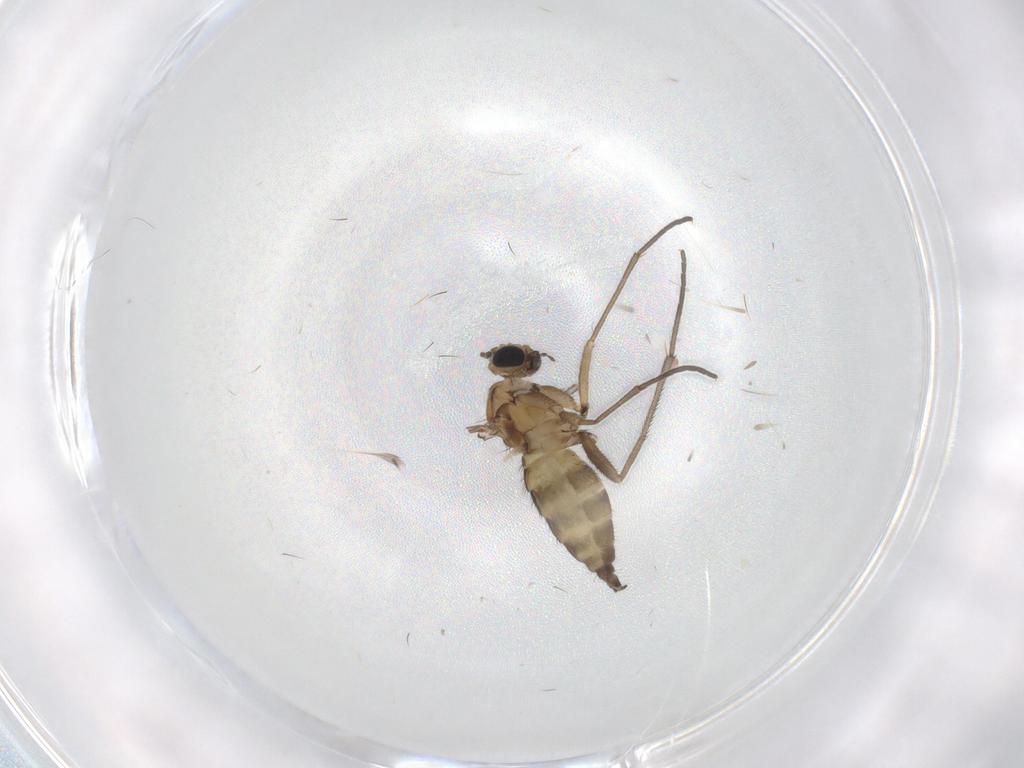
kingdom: Animalia
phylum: Arthropoda
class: Insecta
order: Diptera
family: Sciaridae
